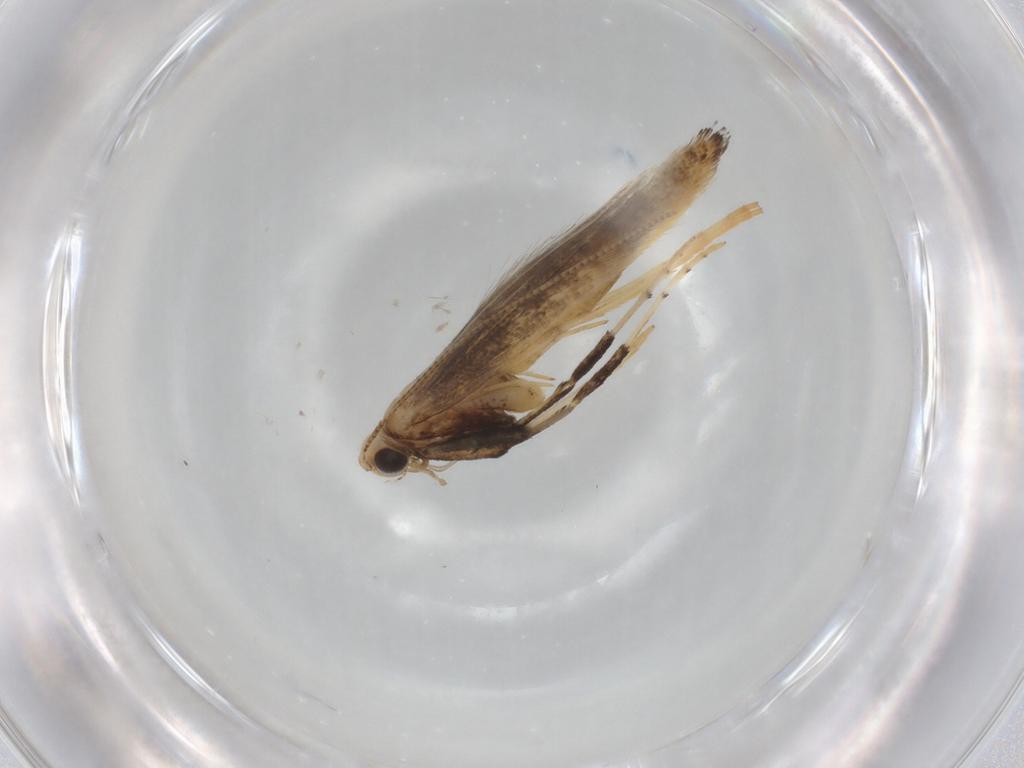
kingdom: Animalia
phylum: Arthropoda
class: Insecta
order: Lepidoptera
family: Gracillariidae
